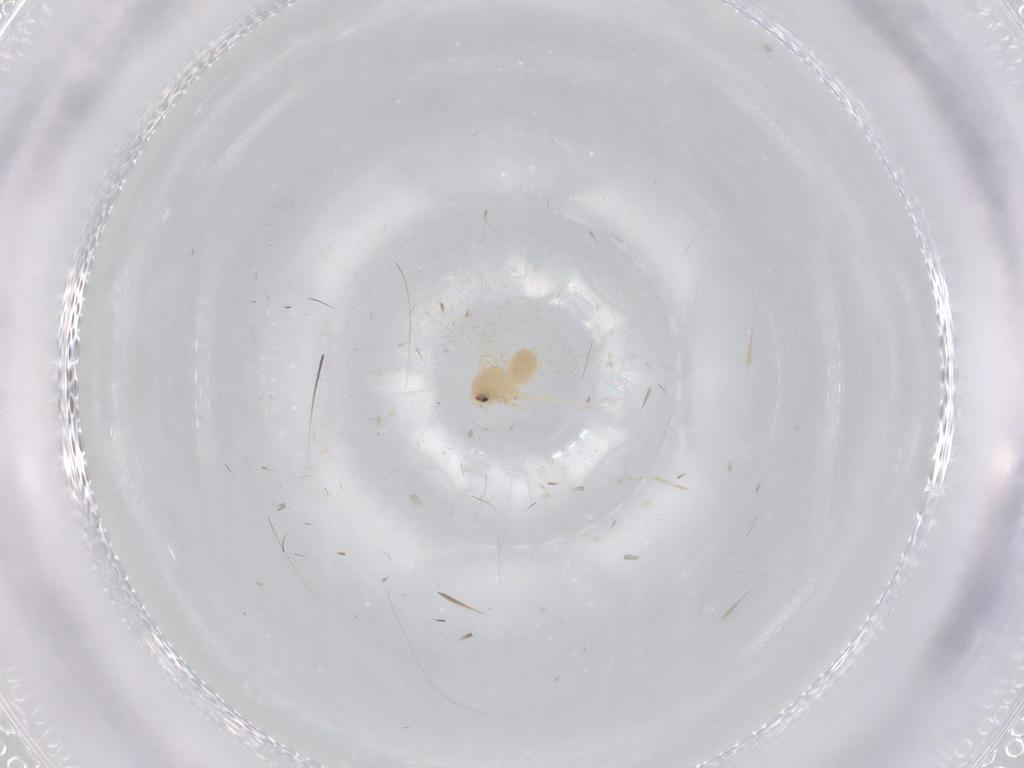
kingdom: Animalia
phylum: Arthropoda
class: Insecta
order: Hemiptera
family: Aleyrodidae
